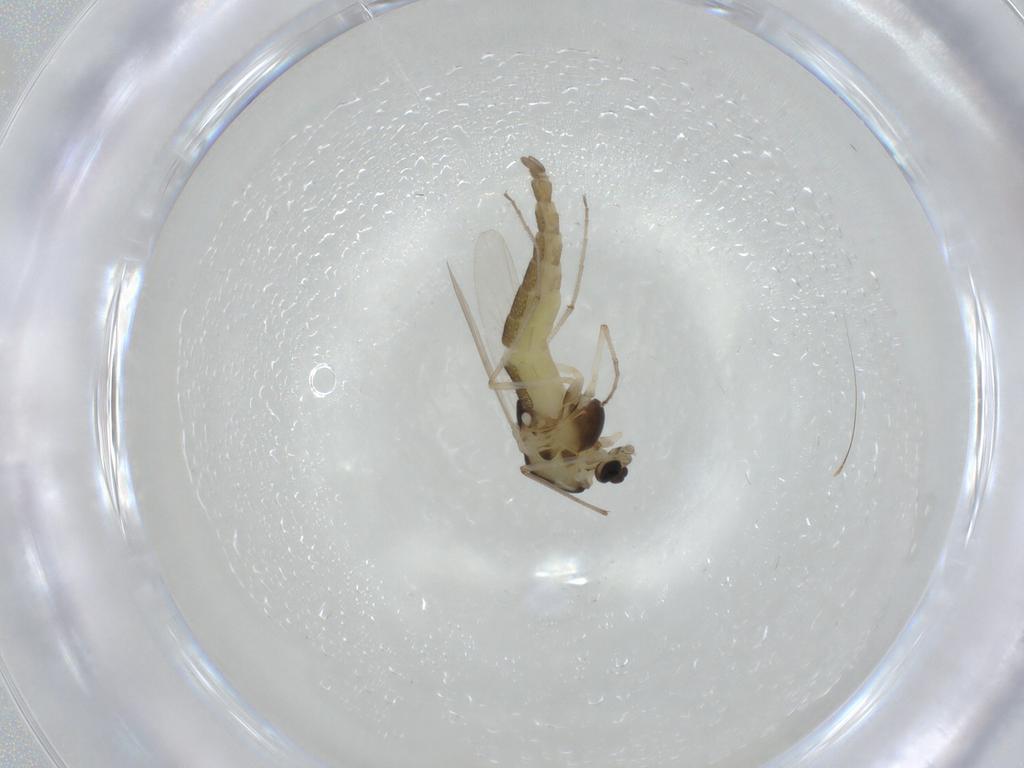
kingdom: Animalia
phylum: Arthropoda
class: Insecta
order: Diptera
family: Chironomidae
